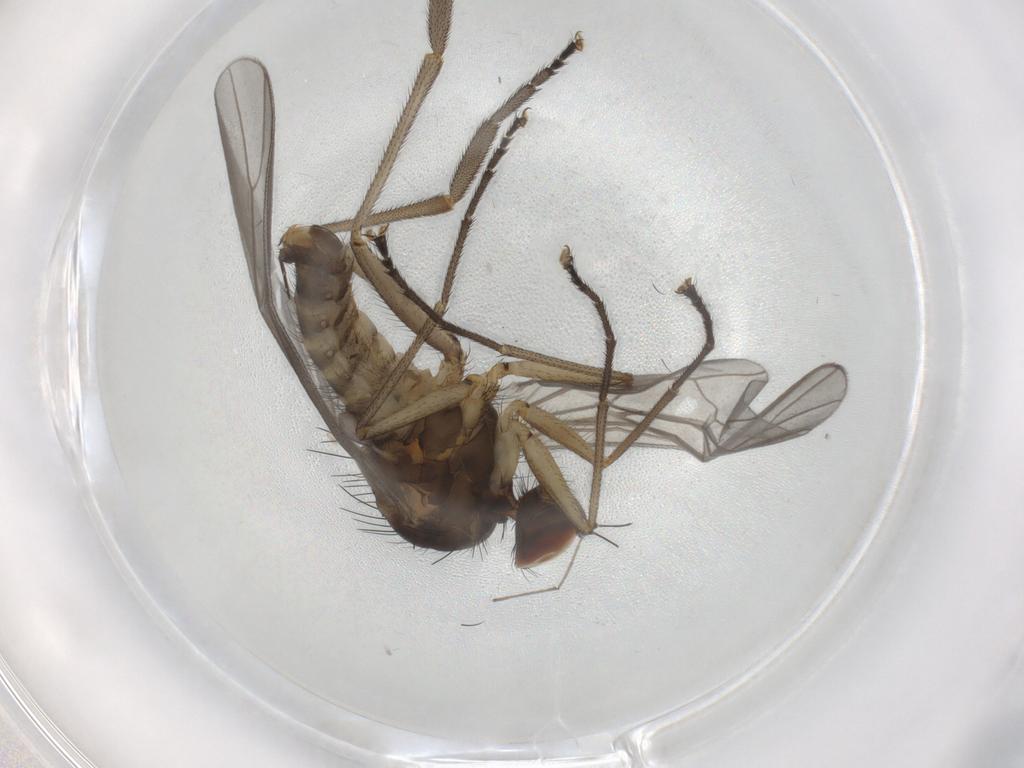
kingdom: Animalia
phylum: Arthropoda
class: Insecta
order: Diptera
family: Brachystomatidae
